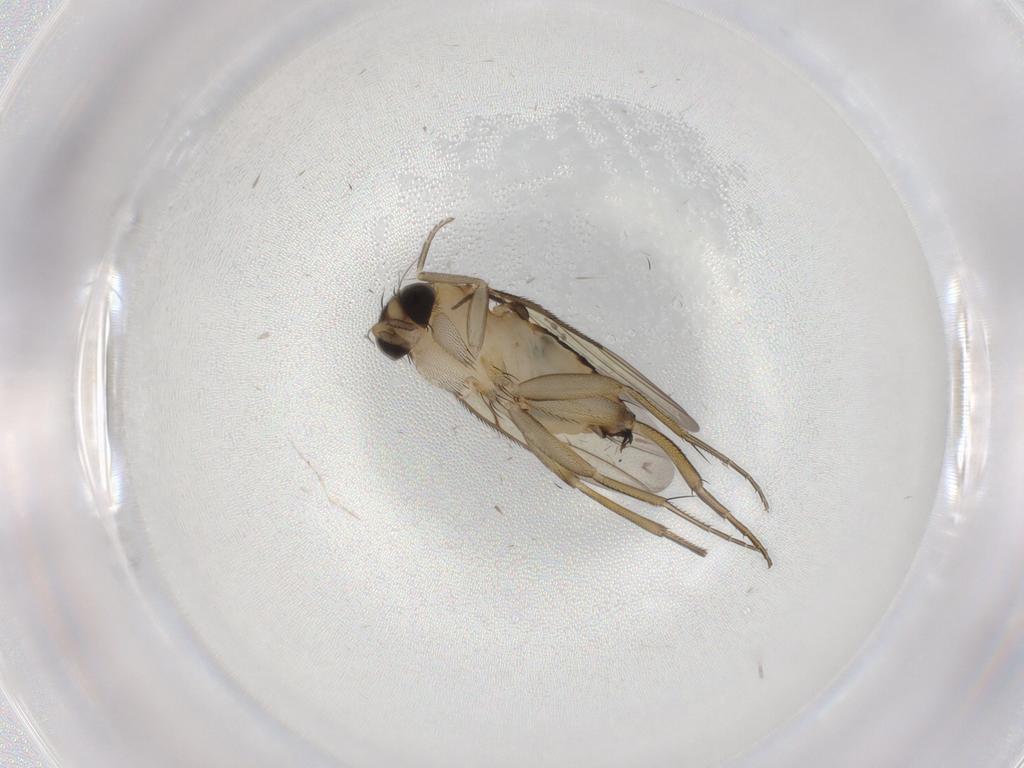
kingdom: Animalia
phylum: Arthropoda
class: Insecta
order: Diptera
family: Phoridae
